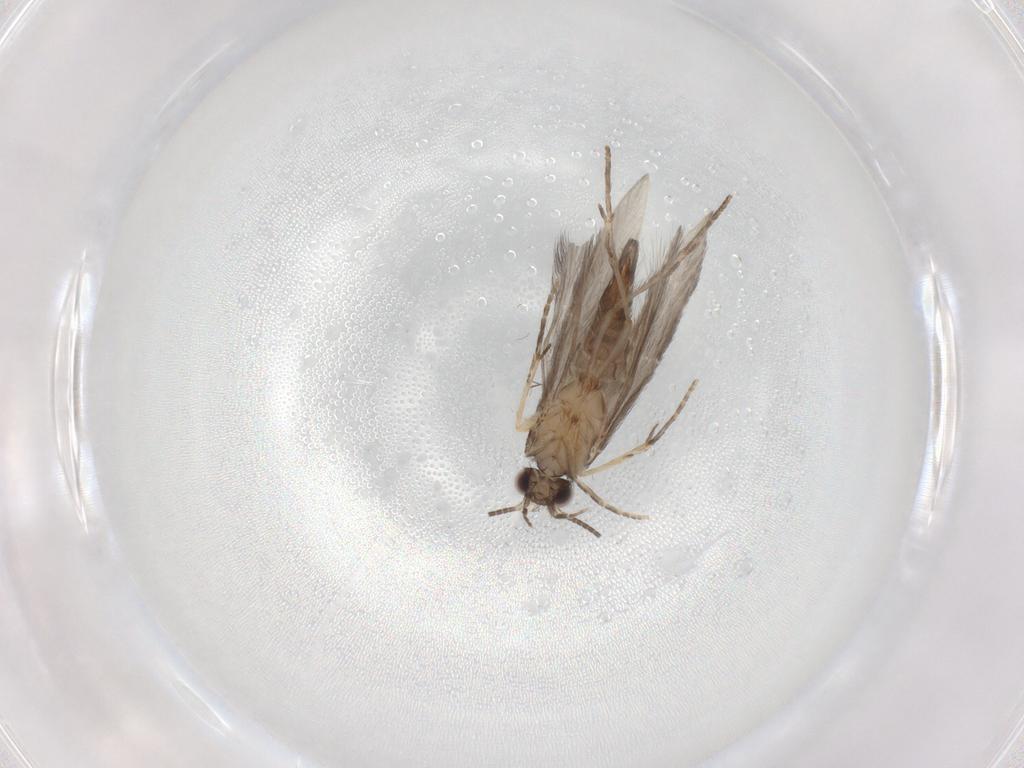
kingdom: Animalia
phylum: Arthropoda
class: Insecta
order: Trichoptera
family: Hydroptilidae
